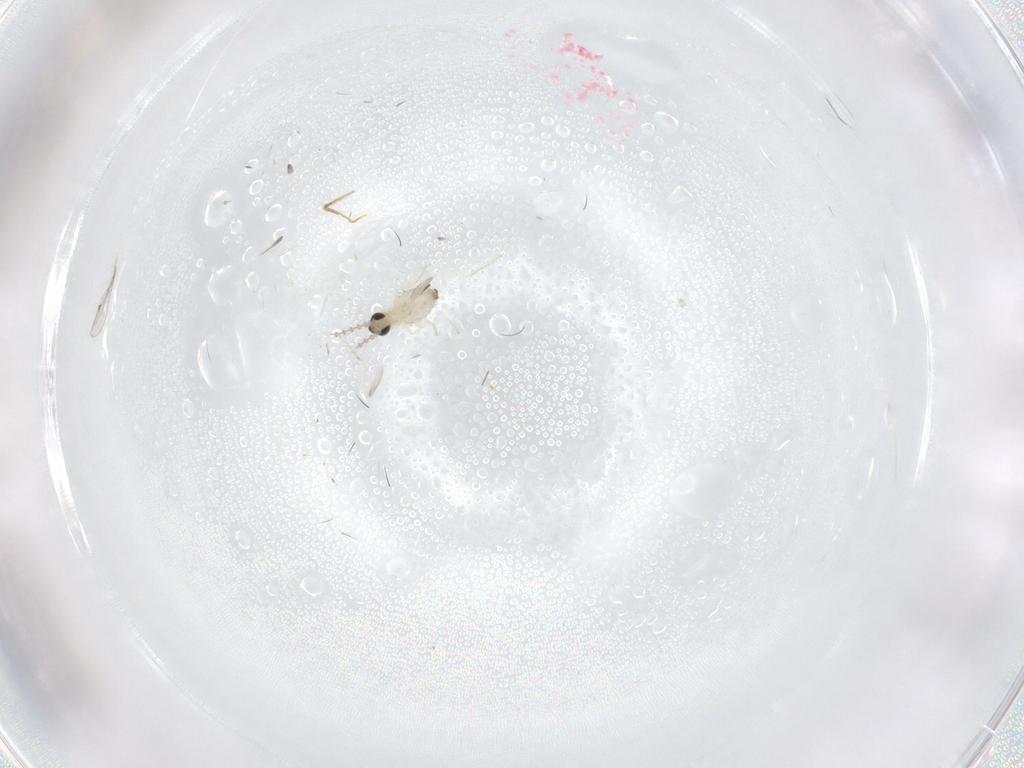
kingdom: Animalia
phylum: Arthropoda
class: Insecta
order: Diptera
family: Cecidomyiidae
